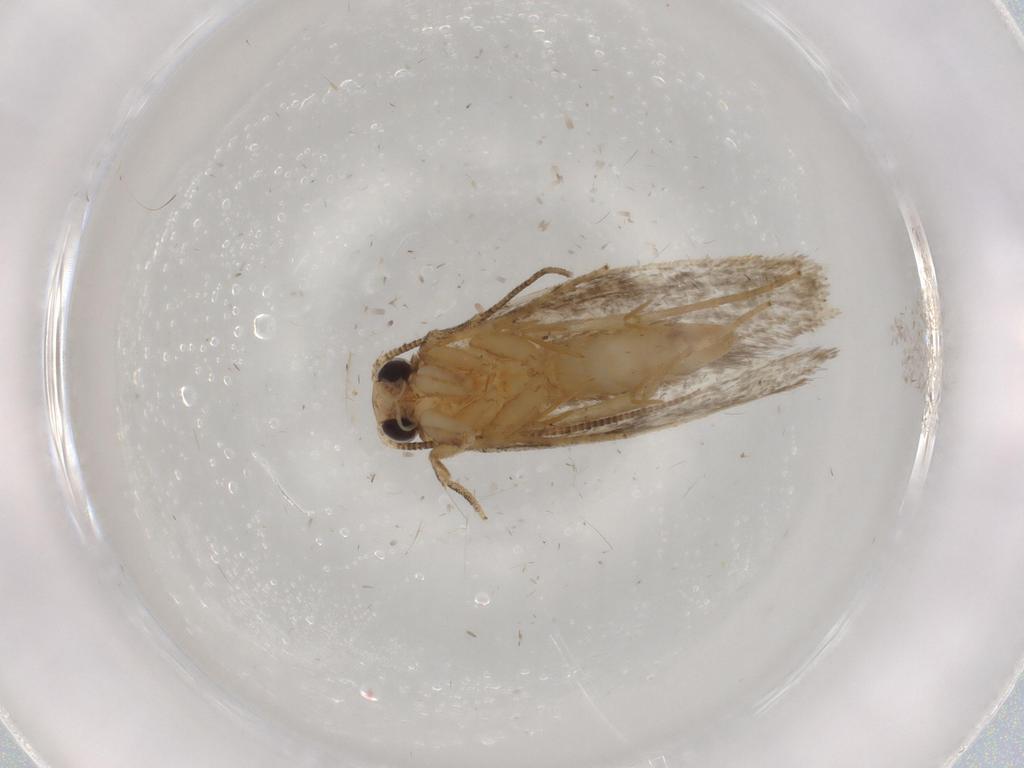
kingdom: Animalia
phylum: Arthropoda
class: Insecta
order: Lepidoptera
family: Tineidae
